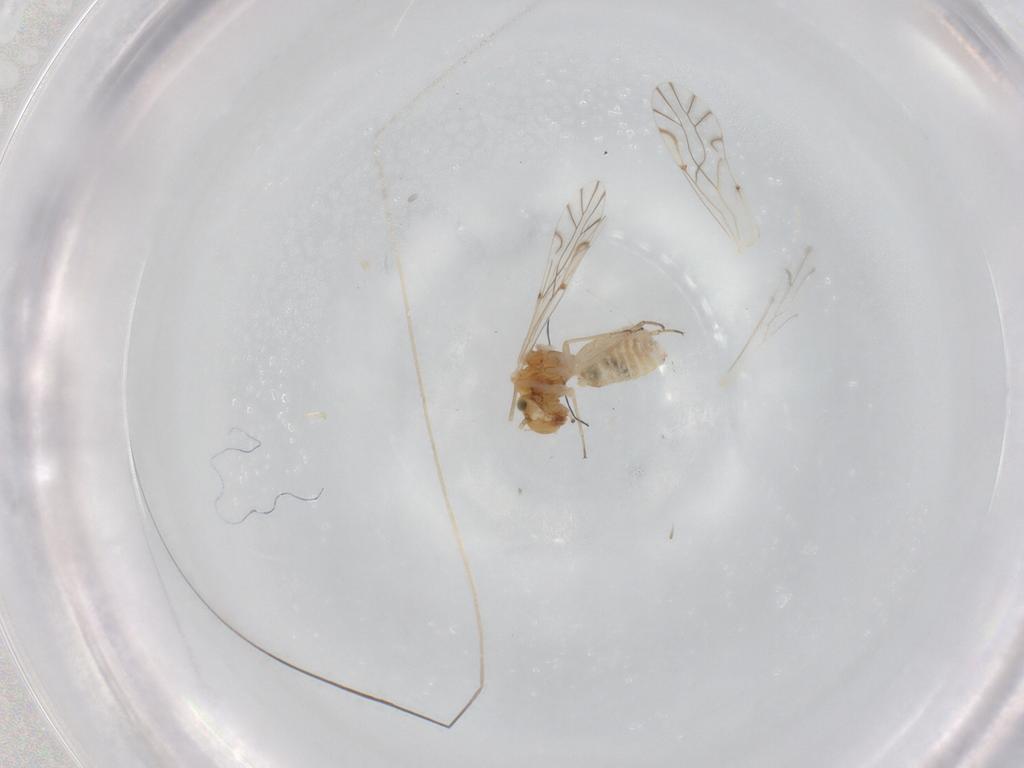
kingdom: Animalia
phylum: Arthropoda
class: Insecta
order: Psocodea
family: Lachesillidae
